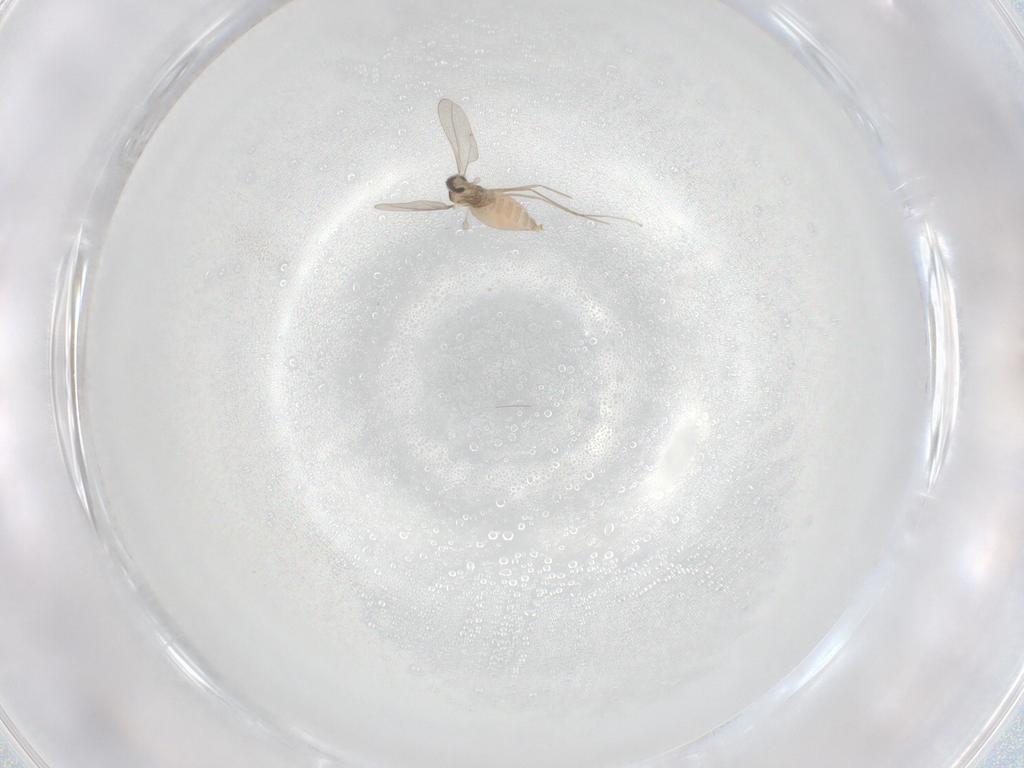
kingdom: Animalia
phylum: Arthropoda
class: Insecta
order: Diptera
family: Cecidomyiidae
